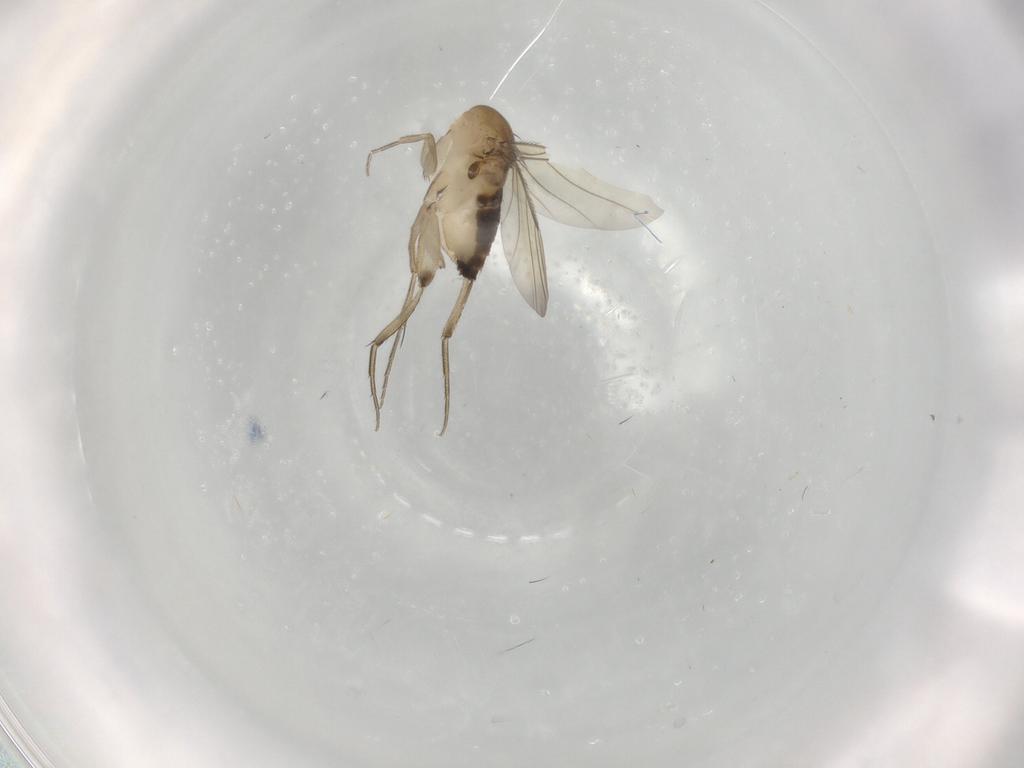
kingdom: Animalia
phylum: Arthropoda
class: Insecta
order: Diptera
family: Phoridae
